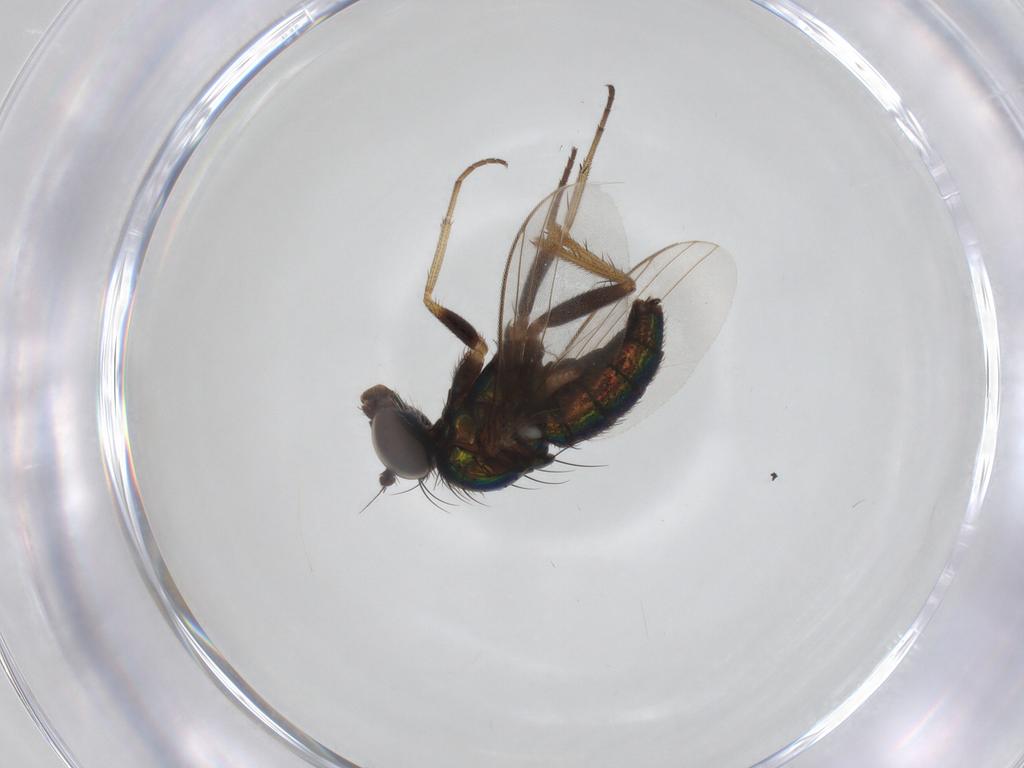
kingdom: Animalia
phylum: Arthropoda
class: Insecta
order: Diptera
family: Dolichopodidae
